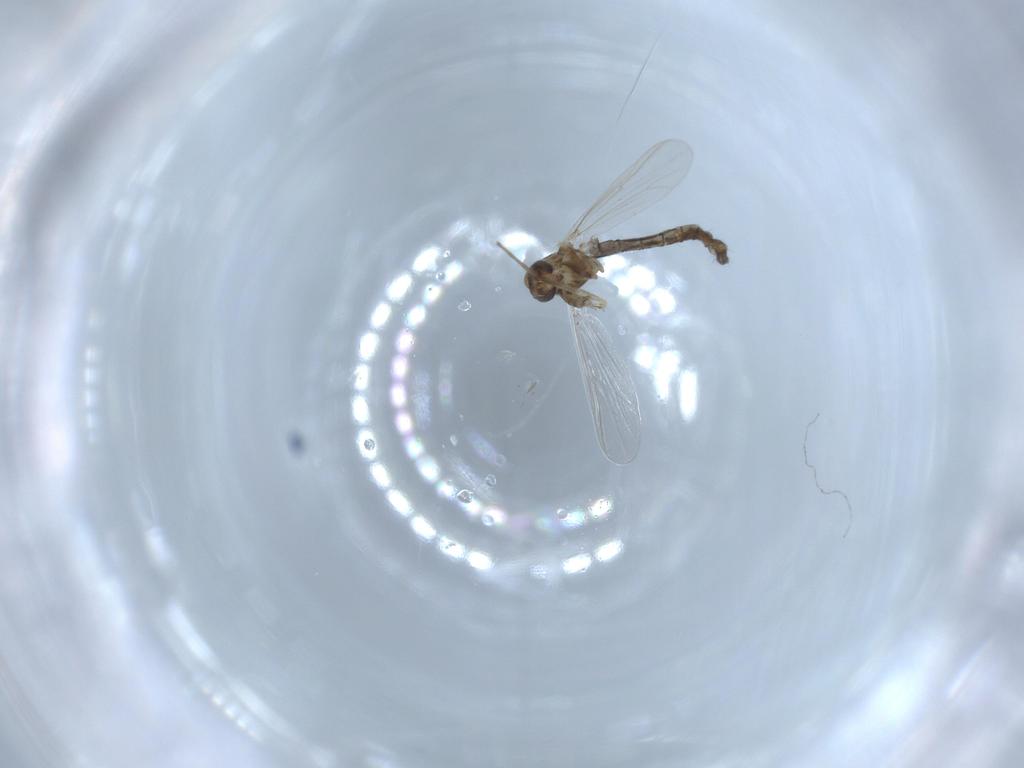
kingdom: Animalia
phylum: Arthropoda
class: Insecta
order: Diptera
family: Chironomidae
